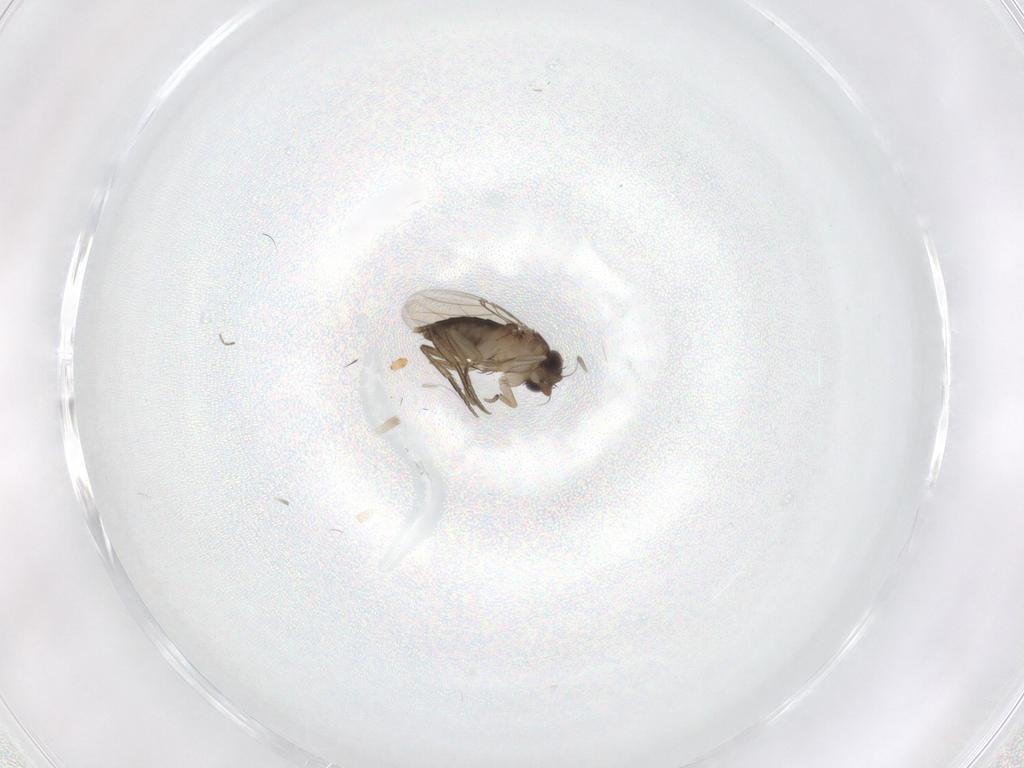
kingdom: Animalia
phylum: Arthropoda
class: Insecta
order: Diptera
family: Phoridae
